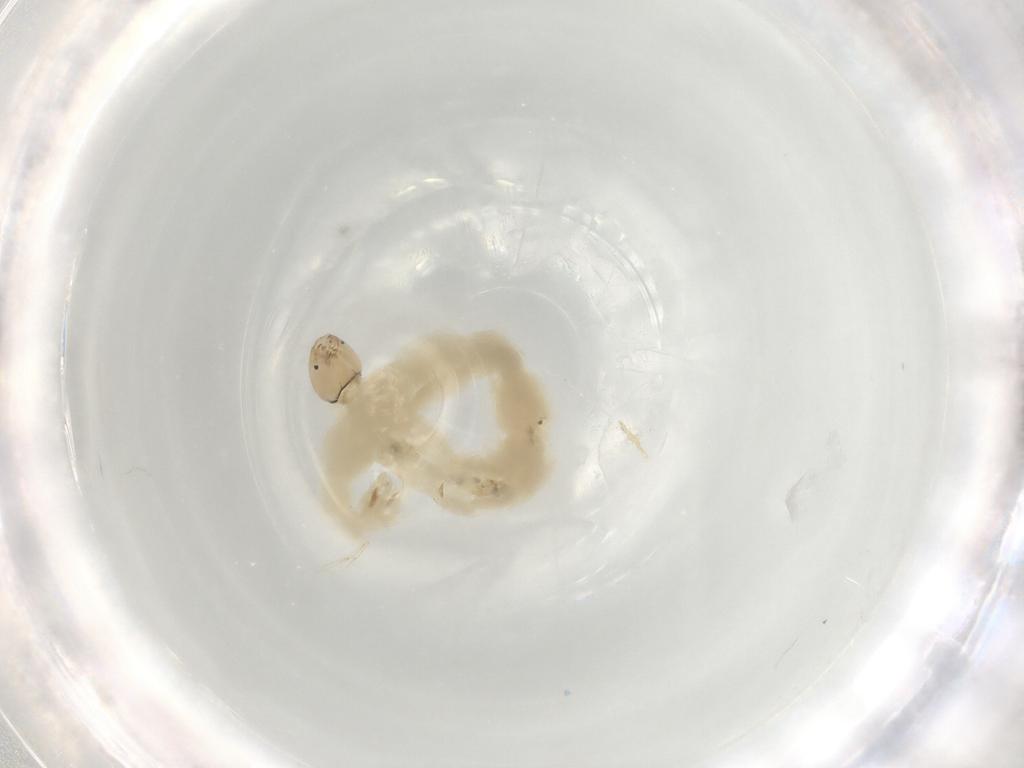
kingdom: Animalia
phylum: Arthropoda
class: Insecta
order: Diptera
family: Chironomidae
